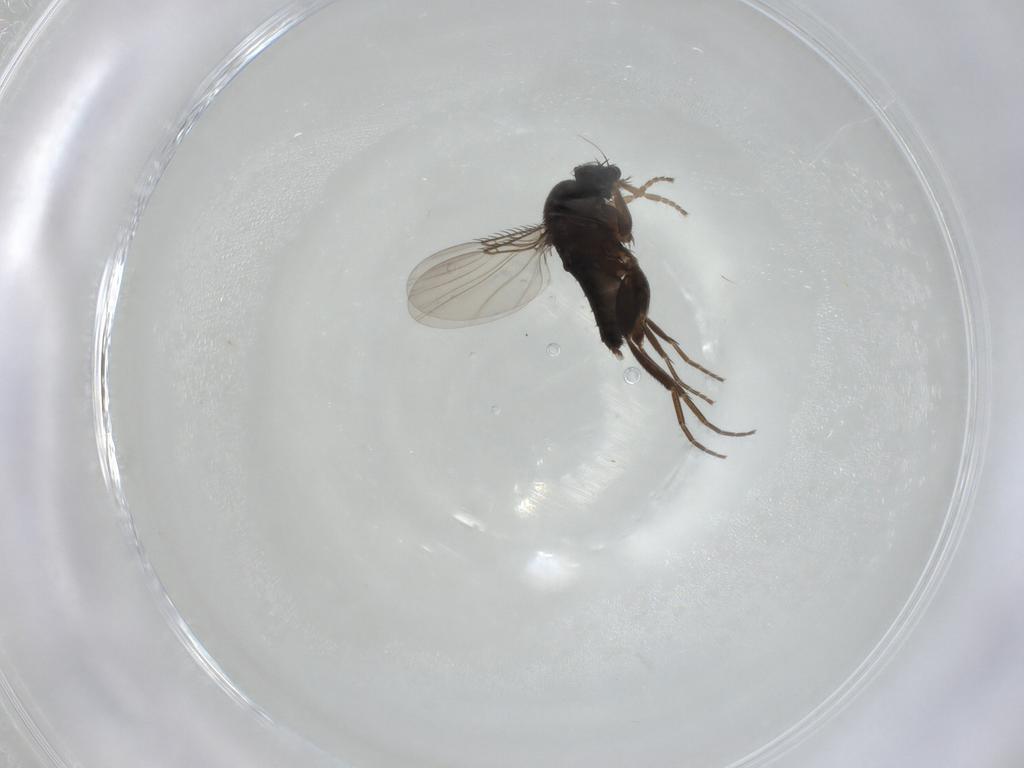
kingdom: Animalia
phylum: Arthropoda
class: Insecta
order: Diptera
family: Phoridae
